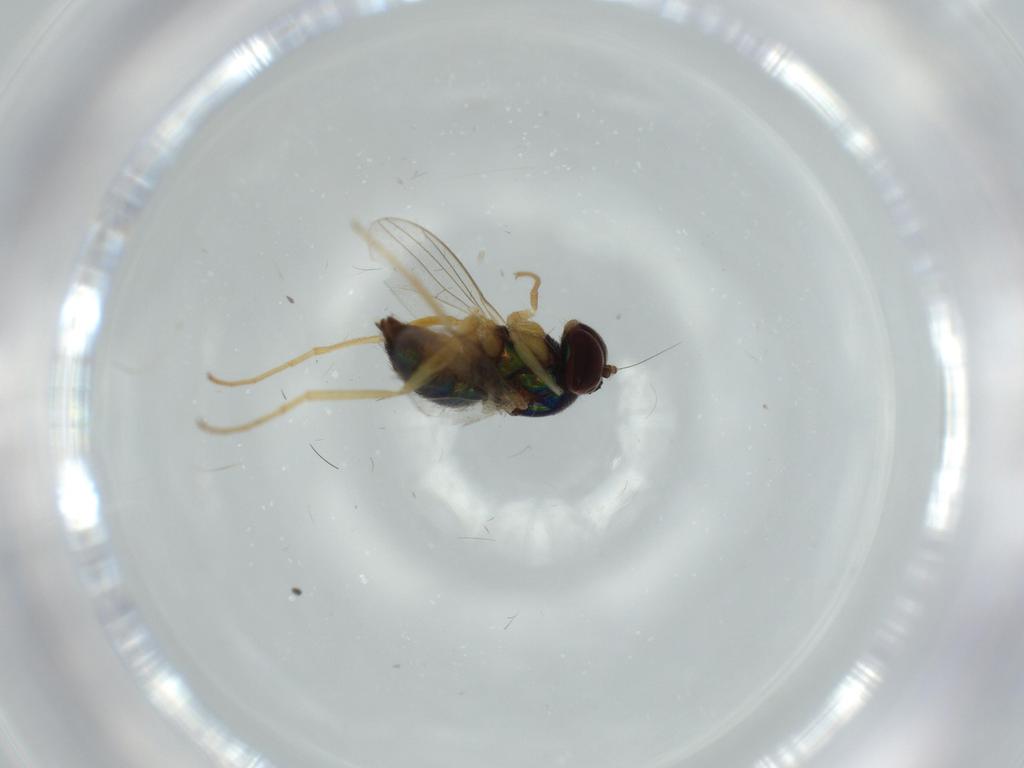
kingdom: Animalia
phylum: Arthropoda
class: Insecta
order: Diptera
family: Dolichopodidae
